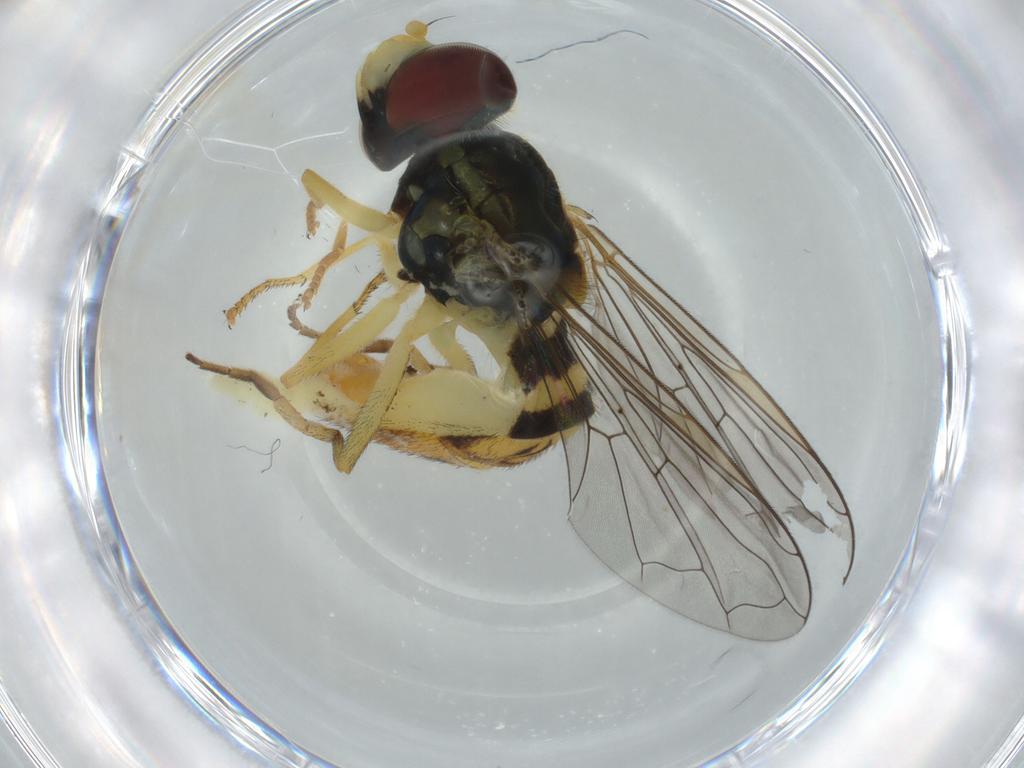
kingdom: Animalia
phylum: Arthropoda
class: Insecta
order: Diptera
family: Syrphidae
